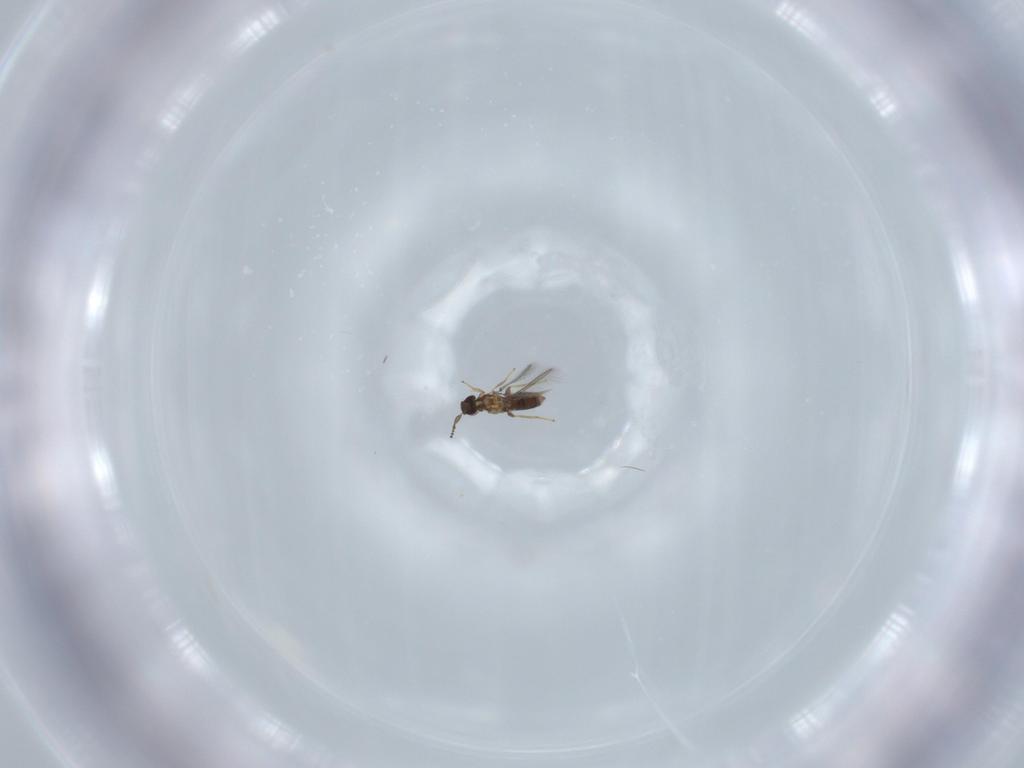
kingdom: Animalia
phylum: Arthropoda
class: Insecta
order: Hymenoptera
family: Mymaridae
